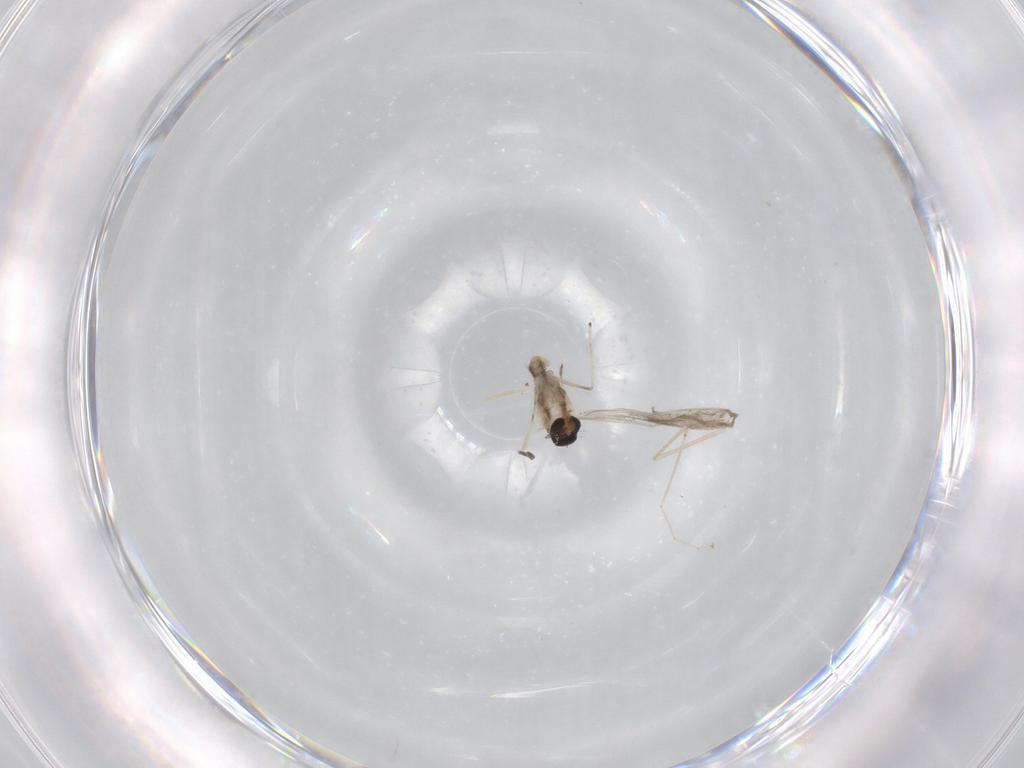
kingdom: Animalia
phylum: Arthropoda
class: Insecta
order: Diptera
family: Cecidomyiidae
